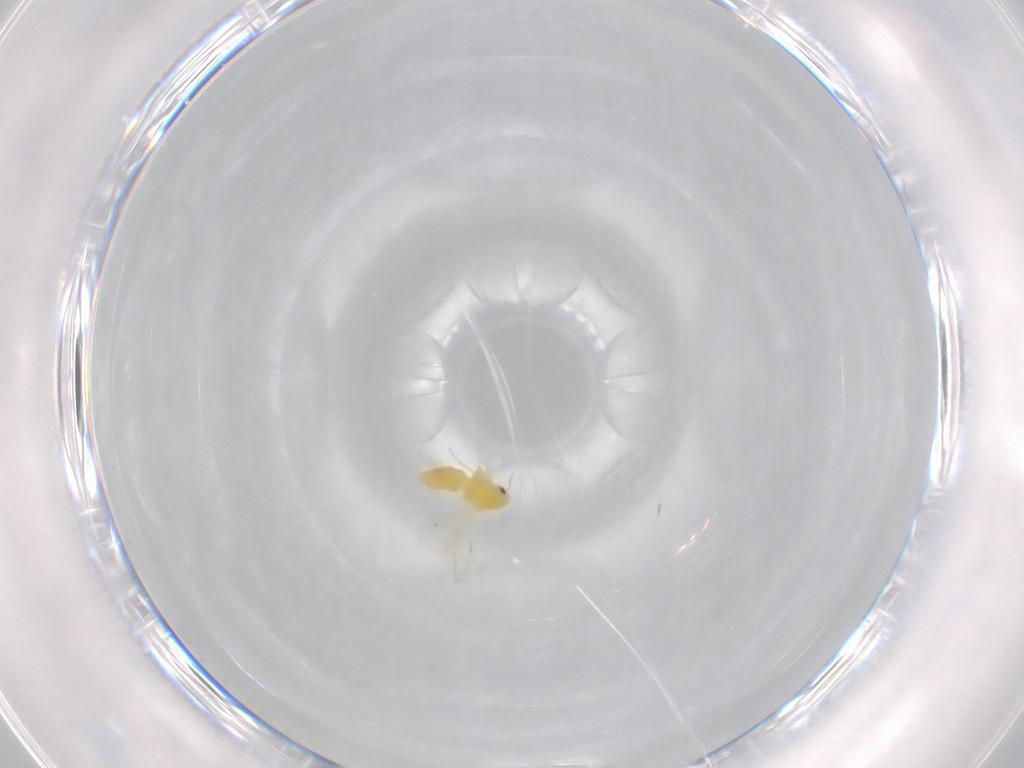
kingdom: Animalia
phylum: Arthropoda
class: Insecta
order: Hemiptera
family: Aleyrodidae
